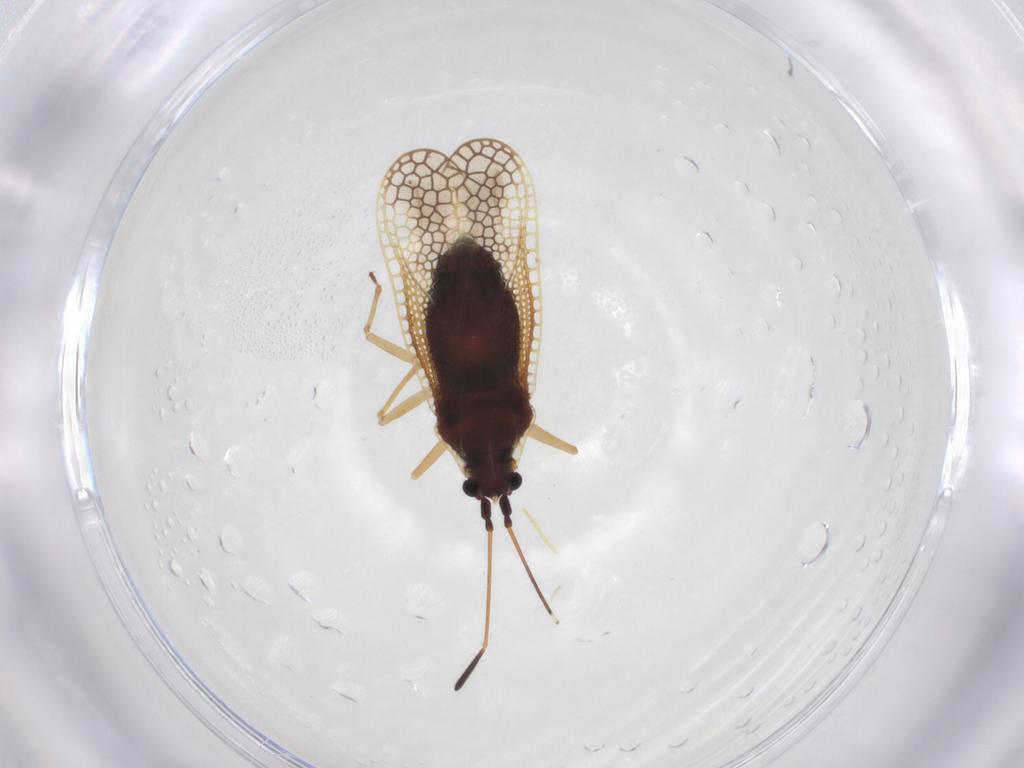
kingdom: Animalia
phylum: Arthropoda
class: Insecta
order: Hemiptera
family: Tingidae
